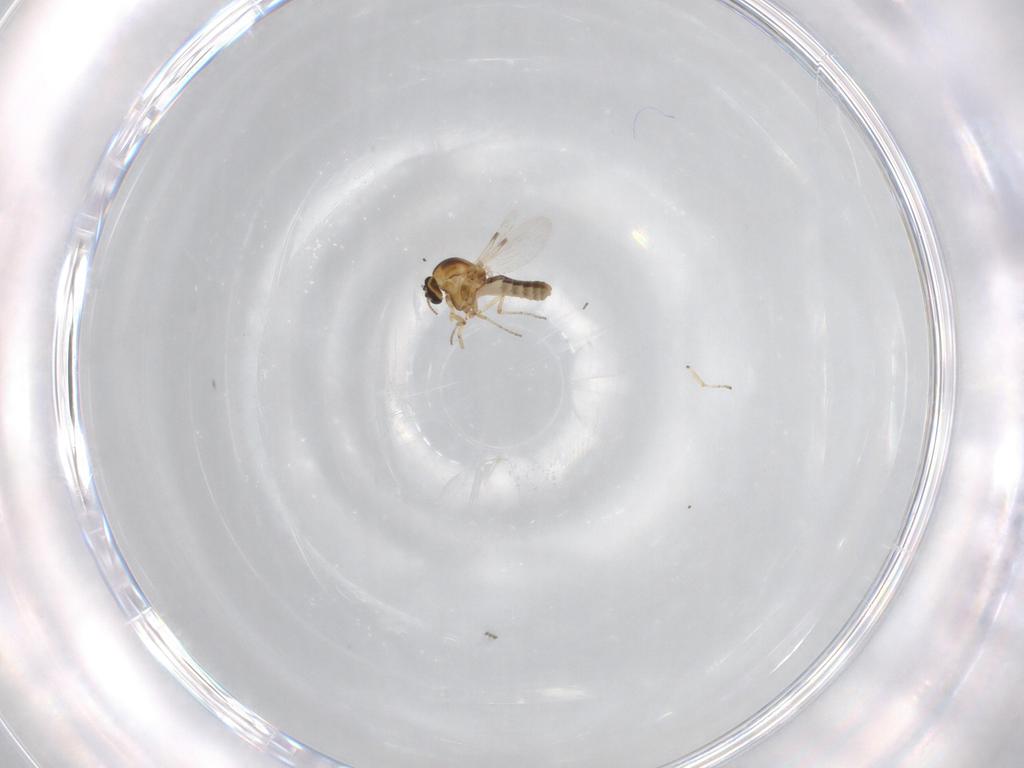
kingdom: Animalia
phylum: Arthropoda
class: Insecta
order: Diptera
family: Ceratopogonidae
